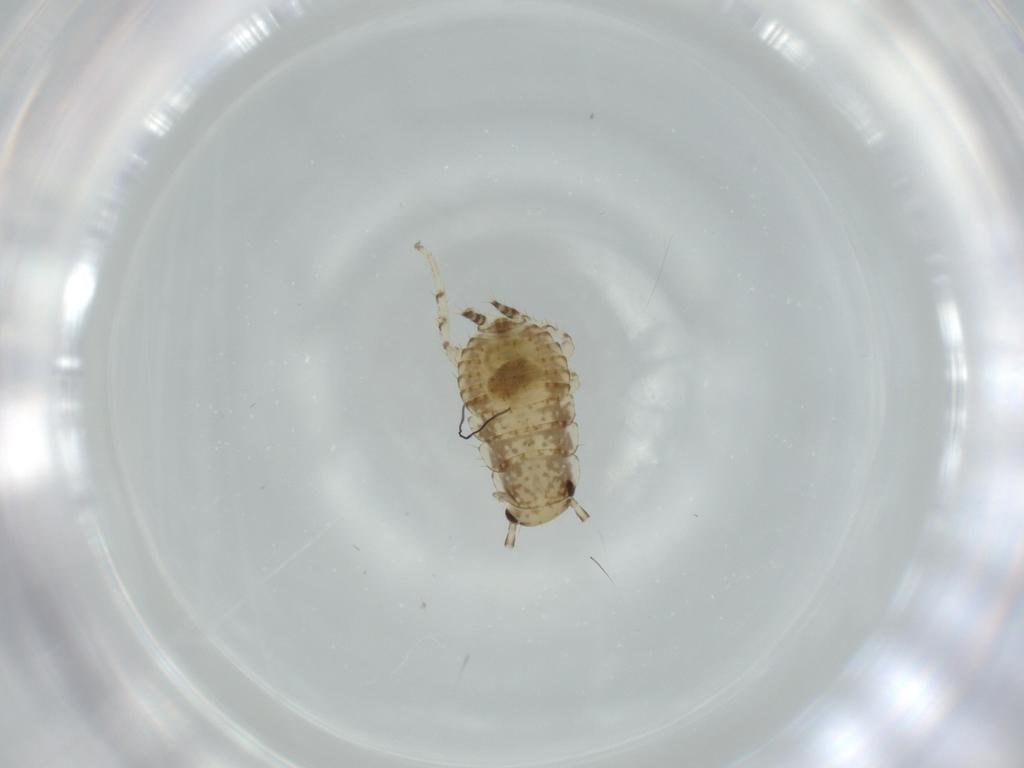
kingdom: Animalia
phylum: Arthropoda
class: Insecta
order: Blattodea
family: Ectobiidae
